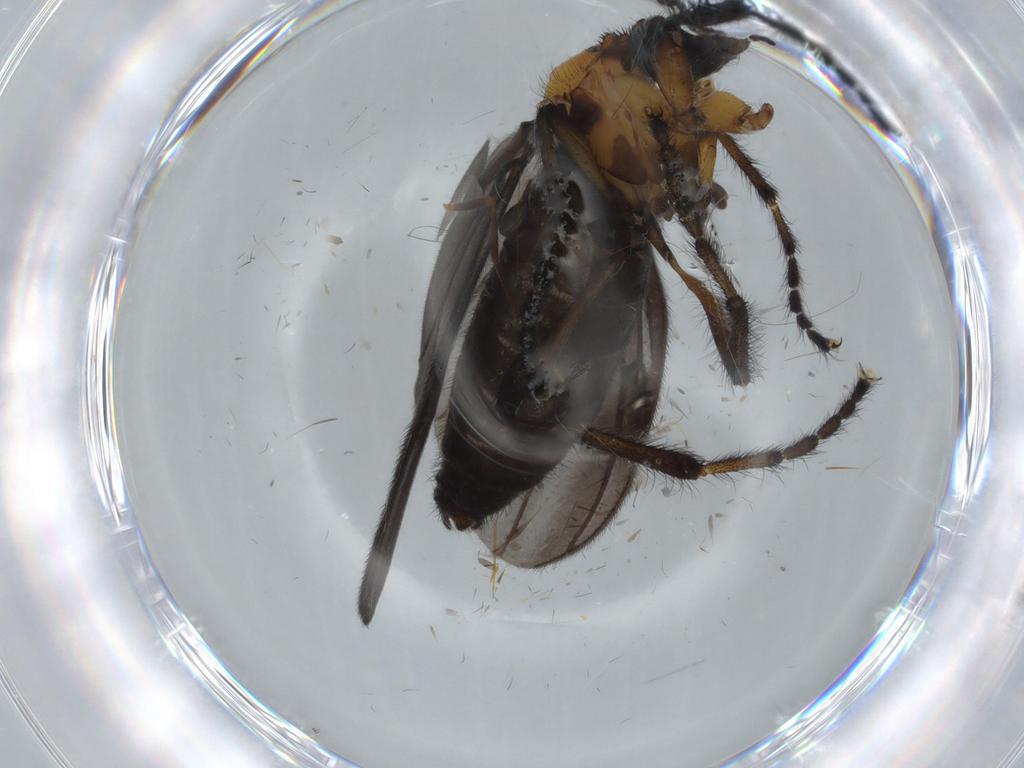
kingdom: Animalia
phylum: Arthropoda
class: Insecta
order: Diptera
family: Bibionidae
